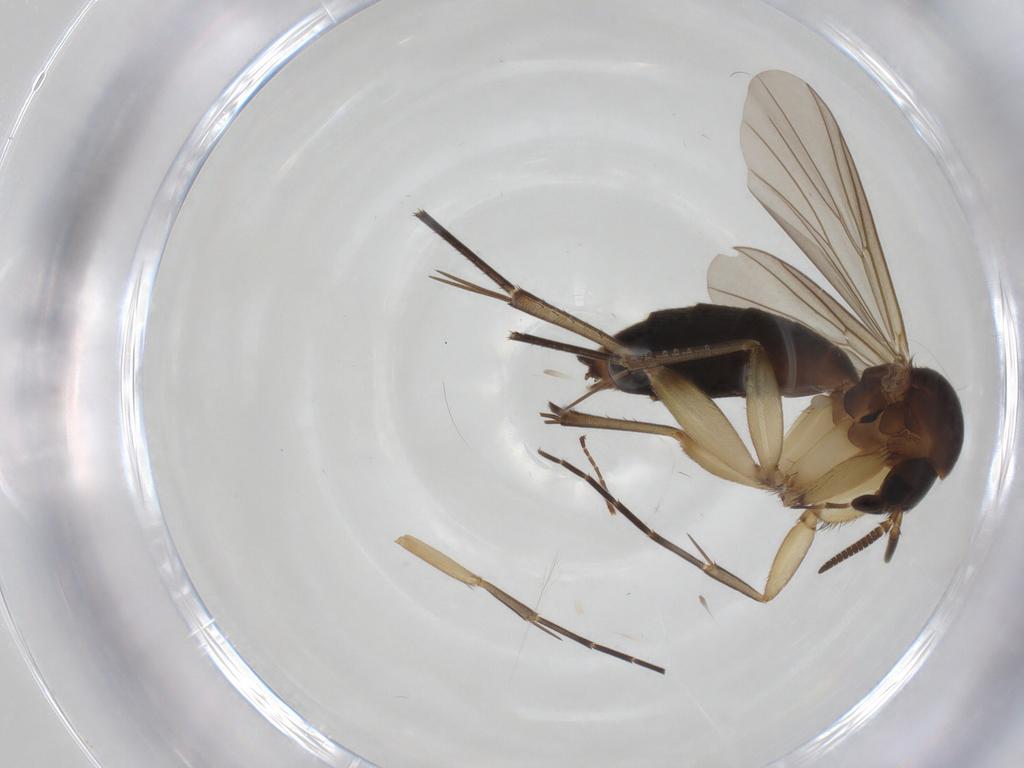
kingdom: Animalia
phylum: Arthropoda
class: Insecta
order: Diptera
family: Mycetophilidae
